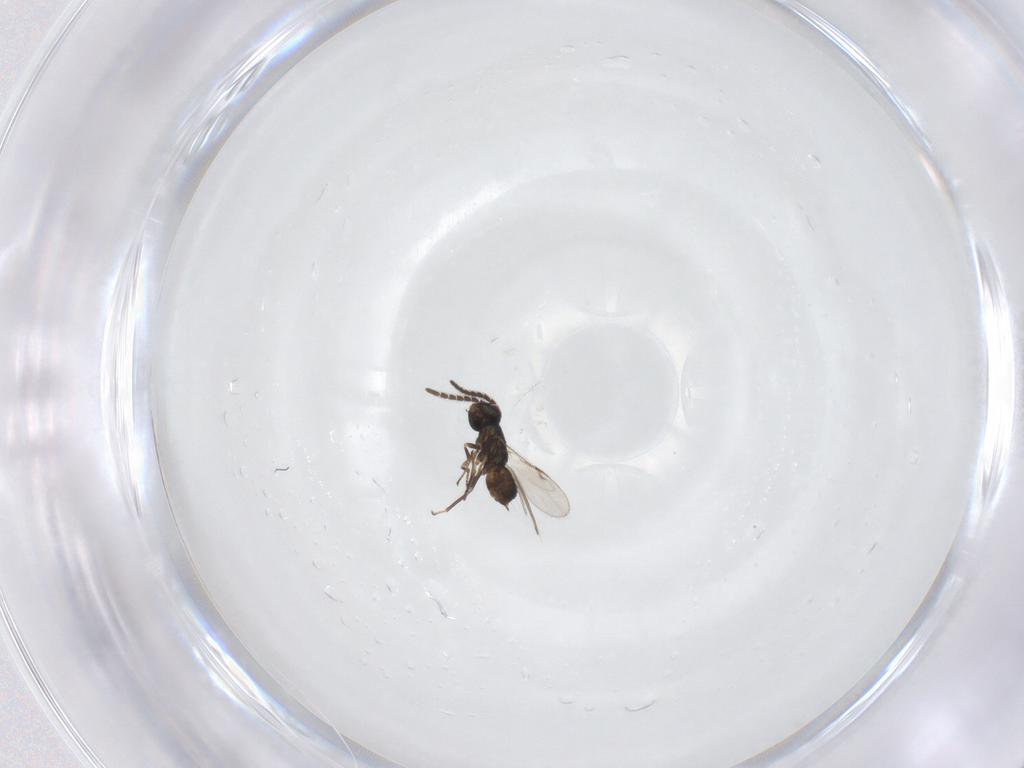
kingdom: Animalia
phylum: Arthropoda
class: Insecta
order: Hymenoptera
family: Encyrtidae
